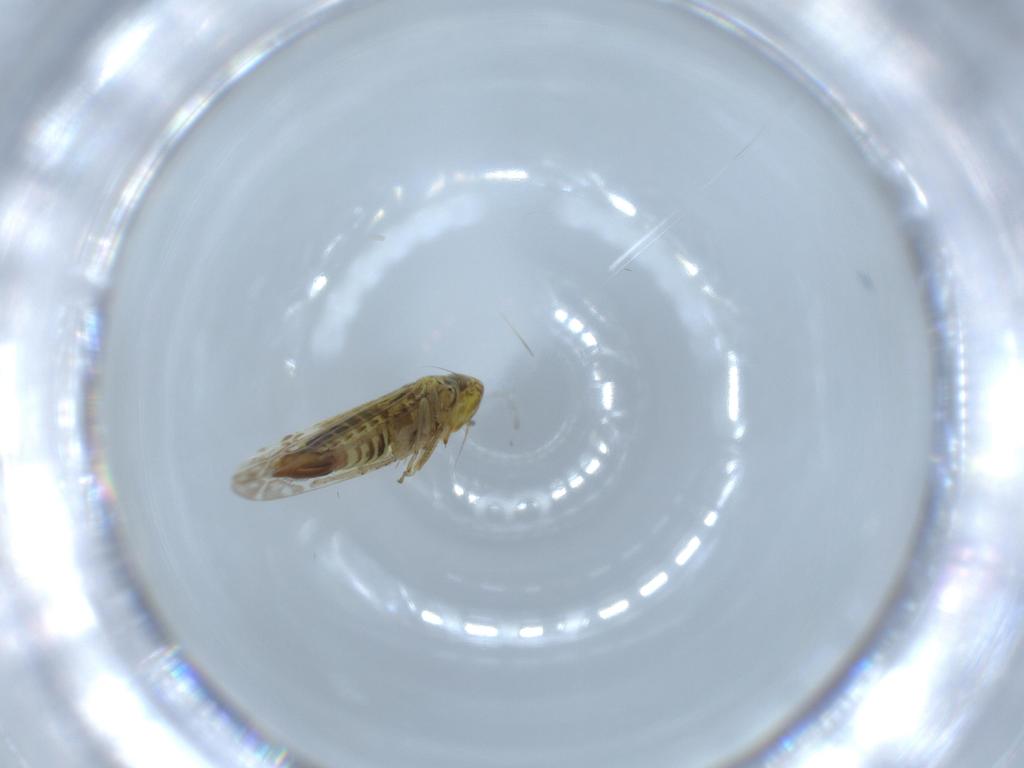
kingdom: Animalia
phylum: Arthropoda
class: Insecta
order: Hemiptera
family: Cicadellidae
